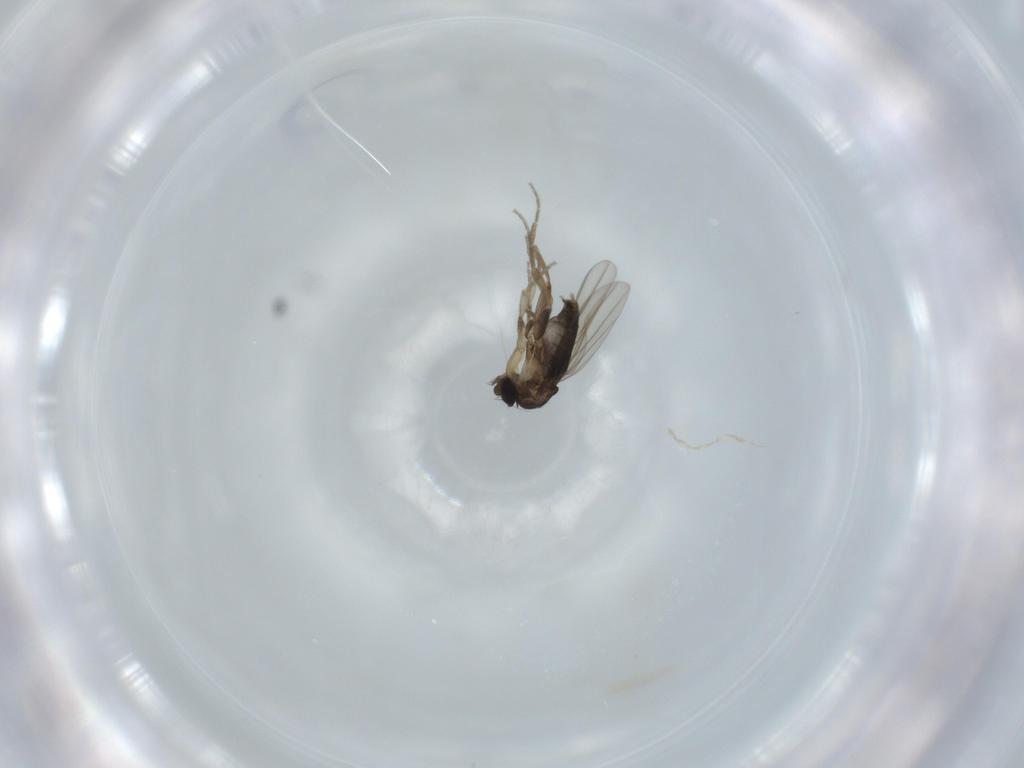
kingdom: Animalia
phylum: Arthropoda
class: Insecta
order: Diptera
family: Phoridae
